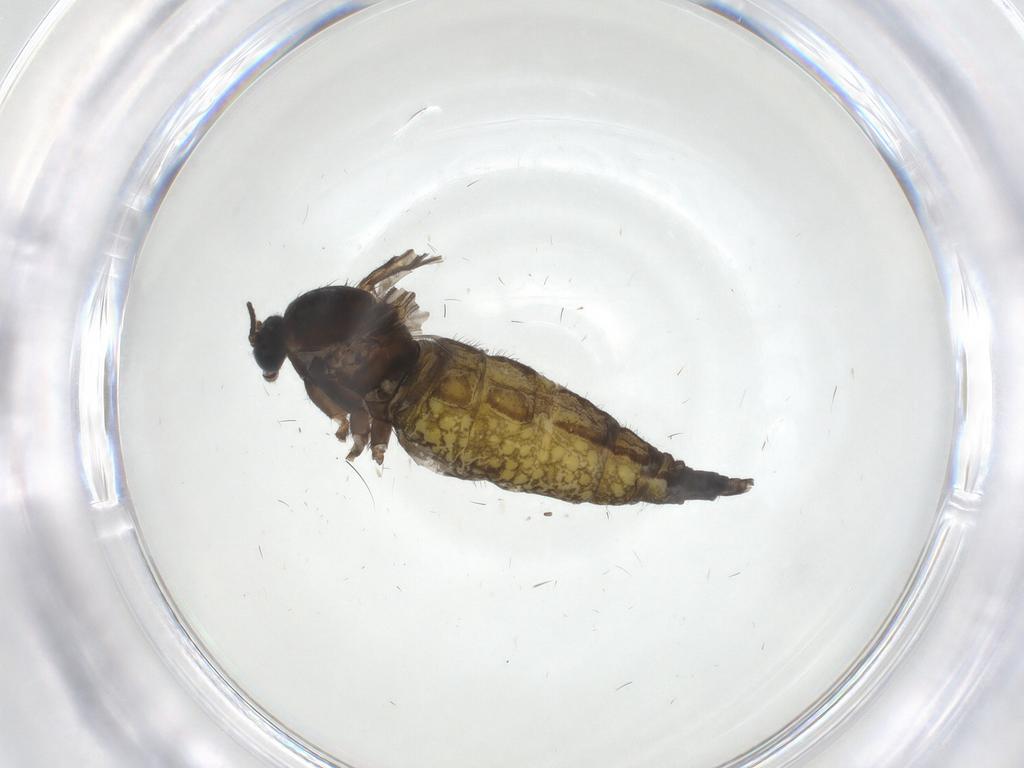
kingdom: Animalia
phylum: Arthropoda
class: Insecta
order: Diptera
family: Sciaridae
